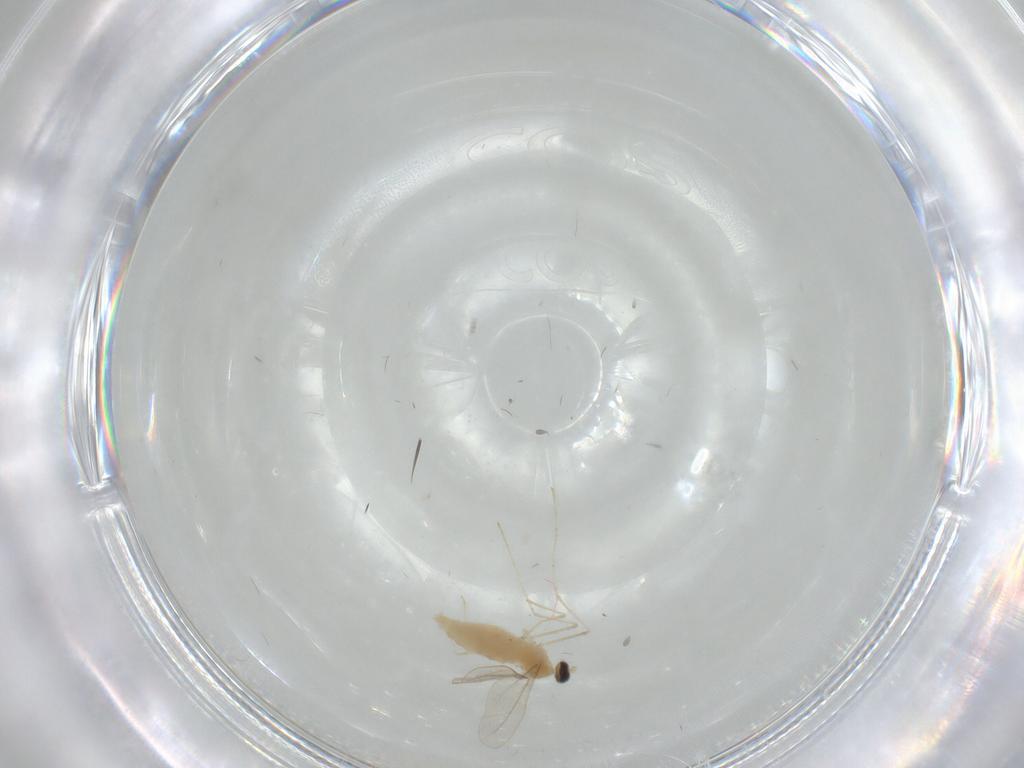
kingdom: Animalia
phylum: Arthropoda
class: Insecta
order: Diptera
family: Cecidomyiidae
